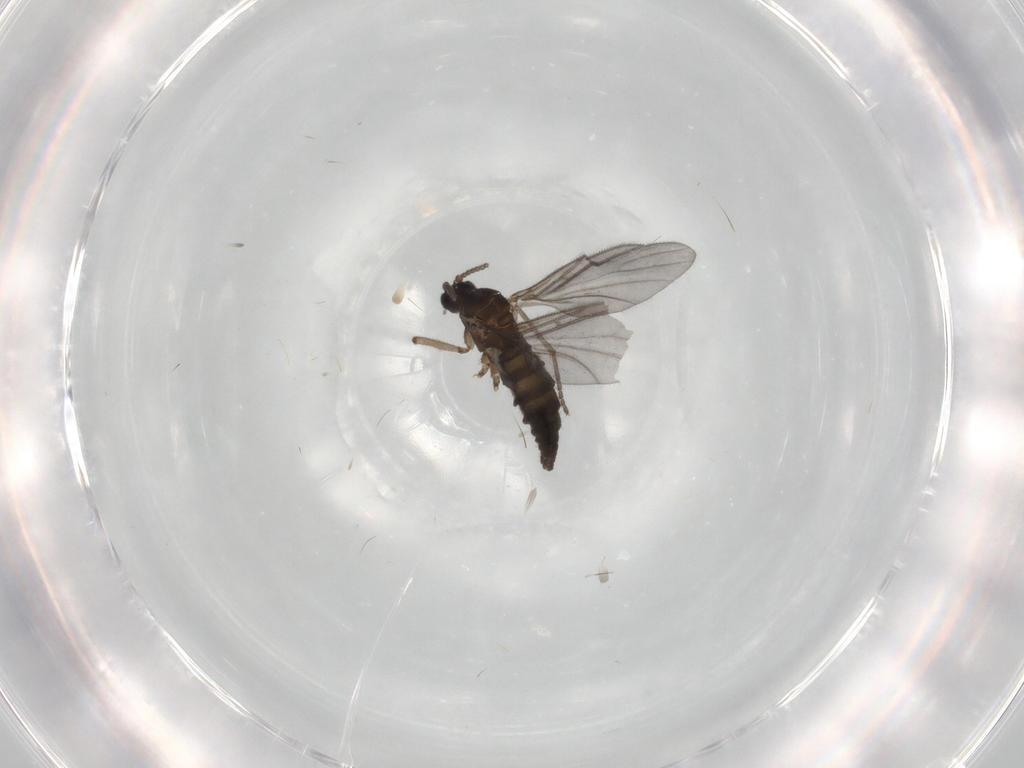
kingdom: Animalia
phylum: Arthropoda
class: Insecta
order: Diptera
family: Sciaridae
